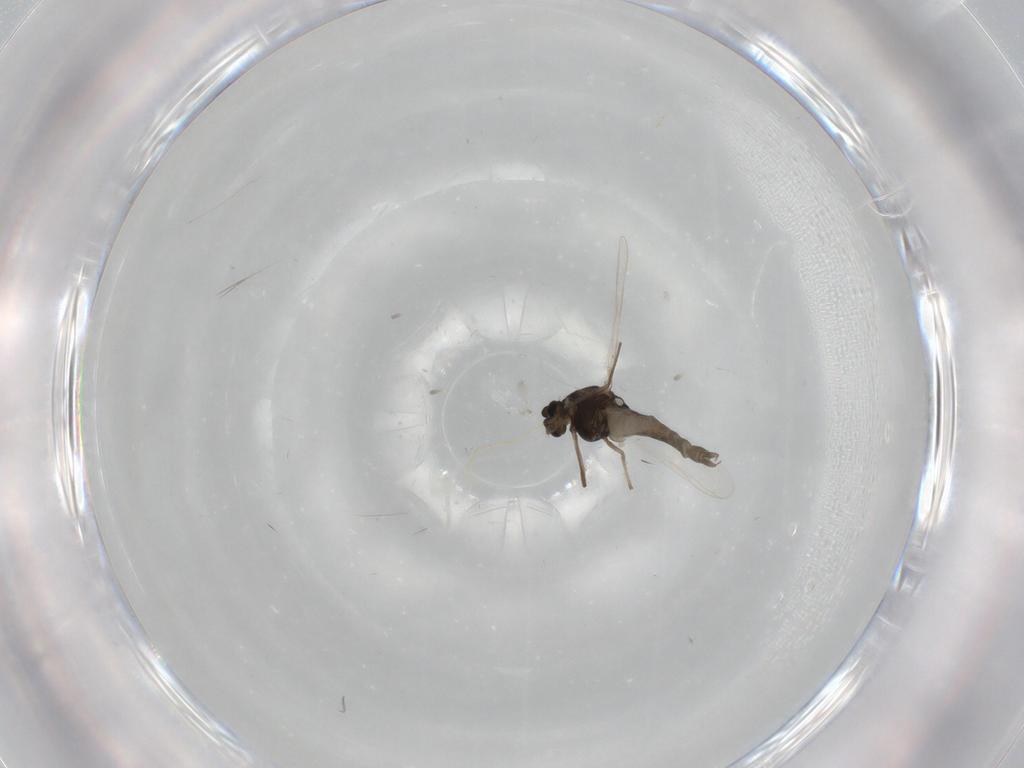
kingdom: Animalia
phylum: Arthropoda
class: Insecta
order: Diptera
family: Chironomidae
